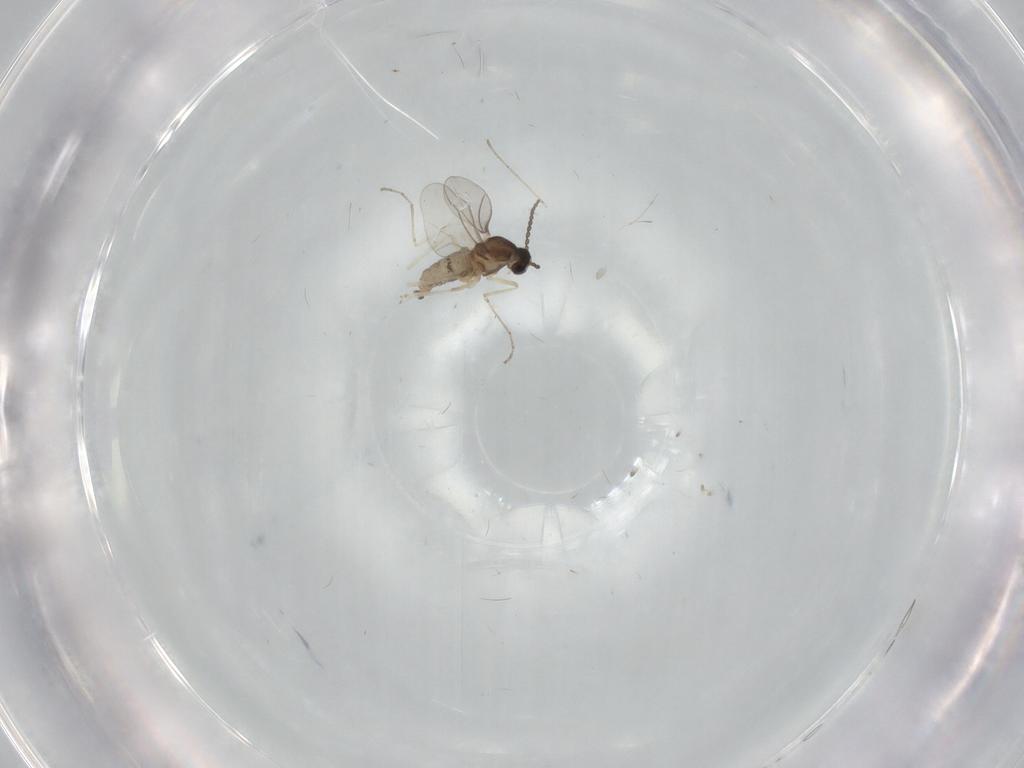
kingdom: Animalia
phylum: Arthropoda
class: Insecta
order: Diptera
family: Cecidomyiidae
